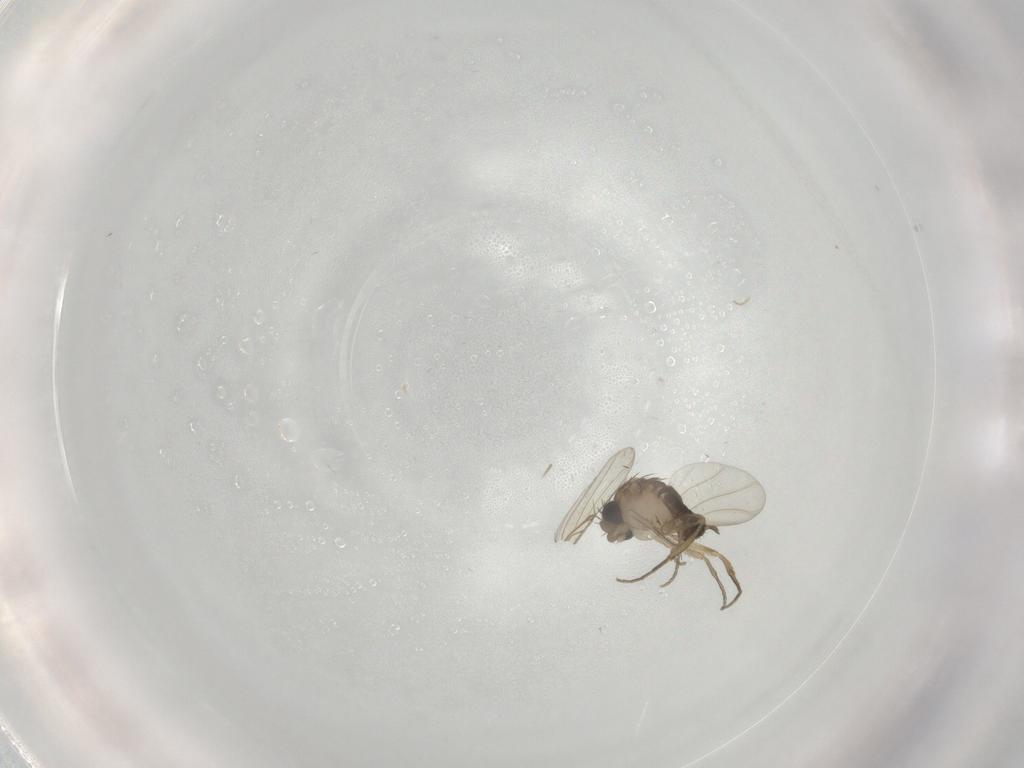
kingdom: Animalia
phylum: Arthropoda
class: Insecta
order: Diptera
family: Cecidomyiidae
